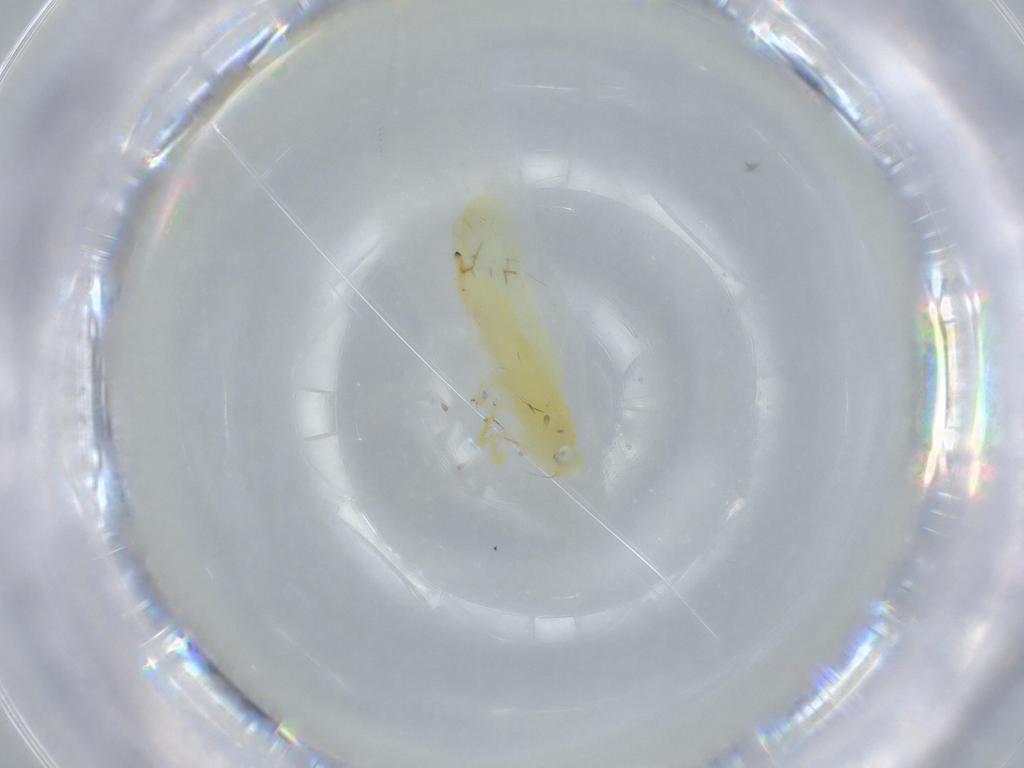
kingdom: Animalia
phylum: Arthropoda
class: Insecta
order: Hemiptera
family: Cicadellidae
